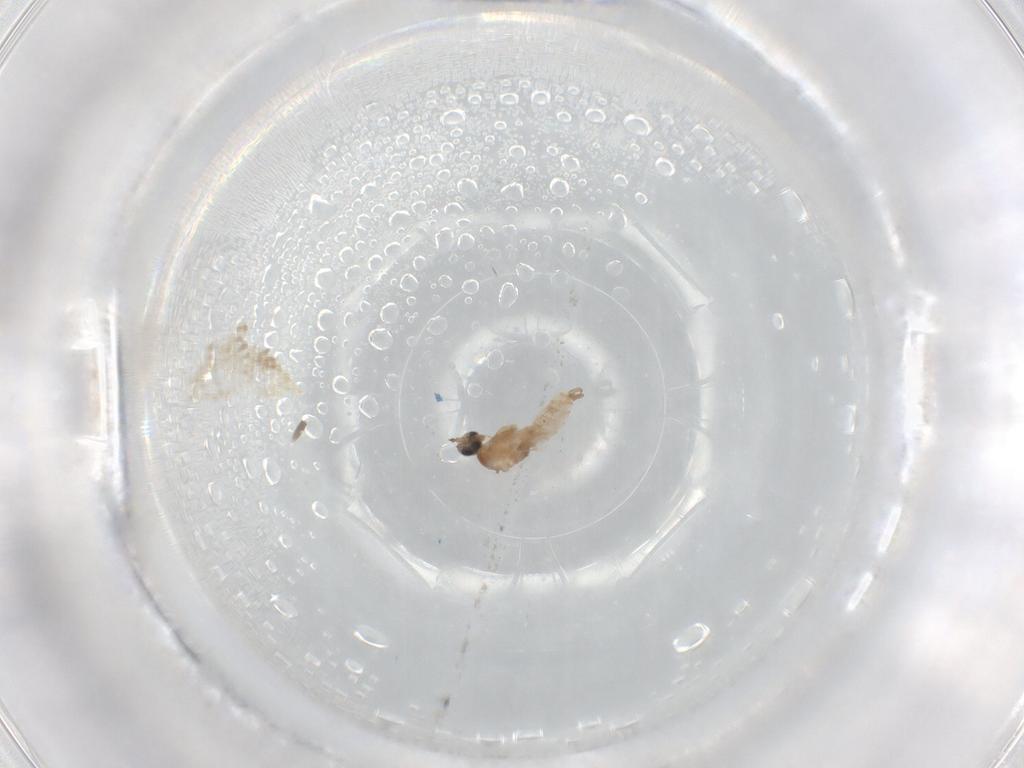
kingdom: Animalia
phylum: Arthropoda
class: Insecta
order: Diptera
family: Cecidomyiidae
